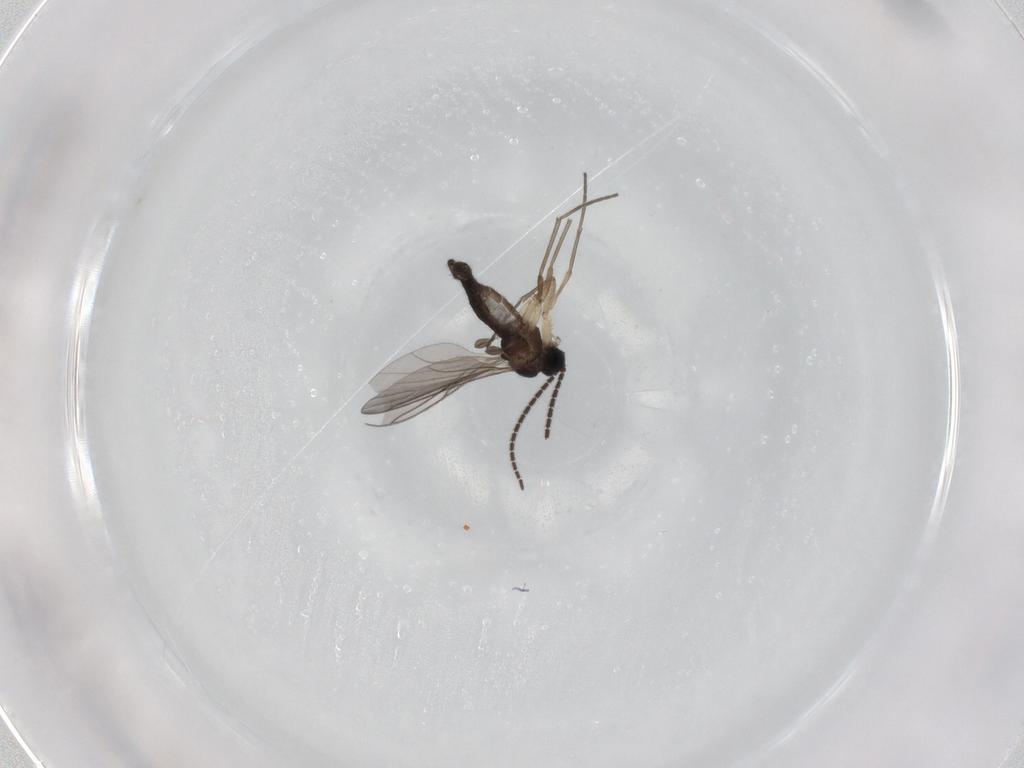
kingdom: Animalia
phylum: Arthropoda
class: Insecta
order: Diptera
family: Sciaridae
